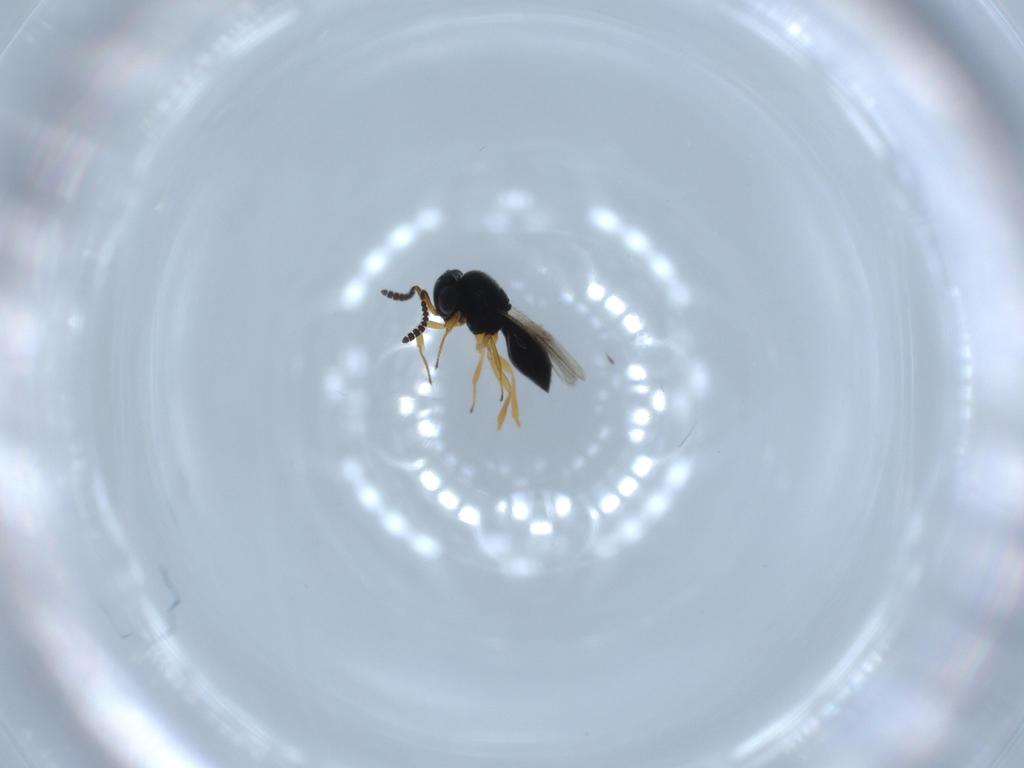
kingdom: Animalia
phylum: Arthropoda
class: Insecta
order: Hymenoptera
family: Scelionidae
